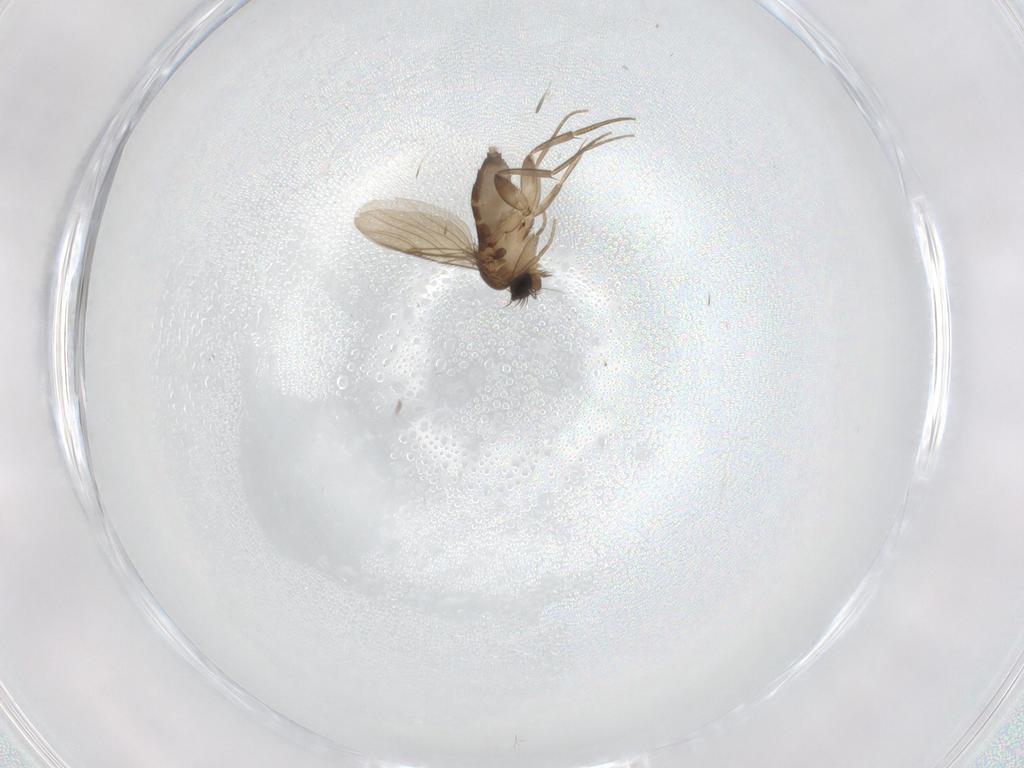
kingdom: Animalia
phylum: Arthropoda
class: Insecta
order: Diptera
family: Phoridae
